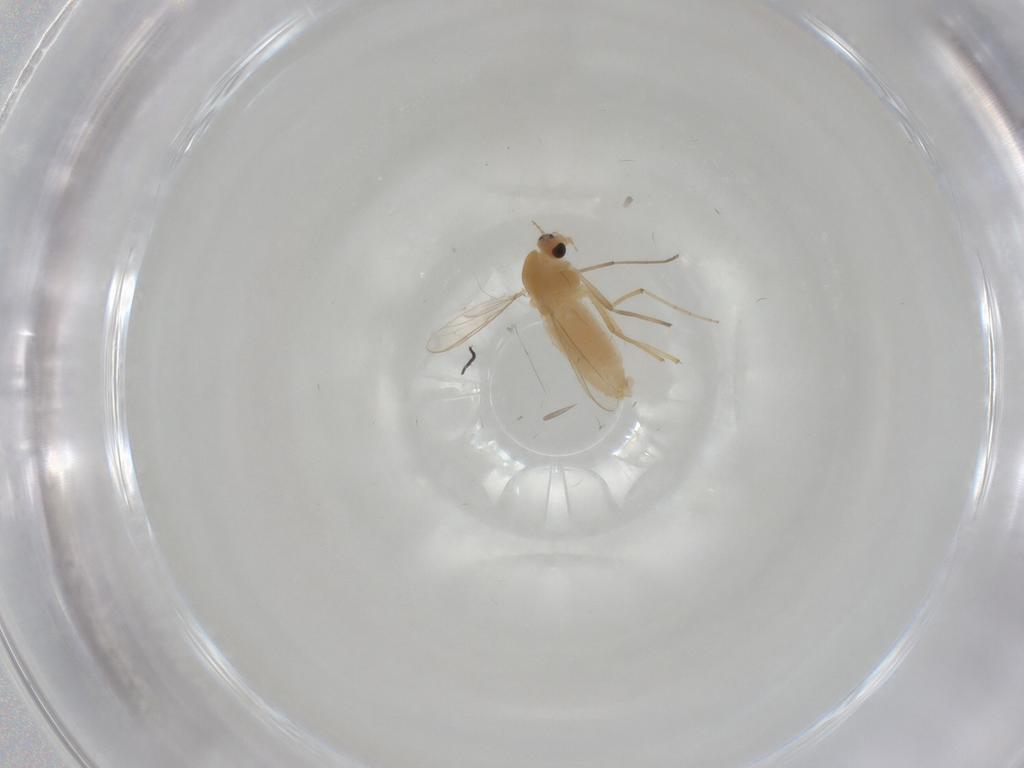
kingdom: Animalia
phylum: Arthropoda
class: Insecta
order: Diptera
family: Chironomidae
